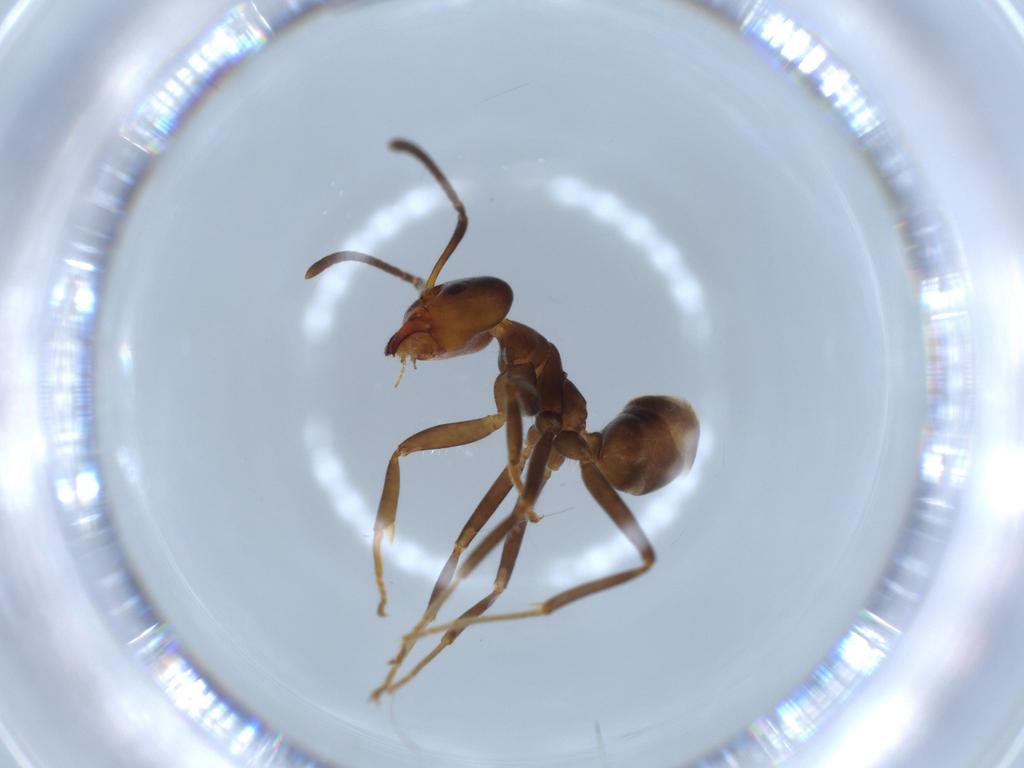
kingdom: Animalia
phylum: Arthropoda
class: Insecta
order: Hymenoptera
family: Formicidae
